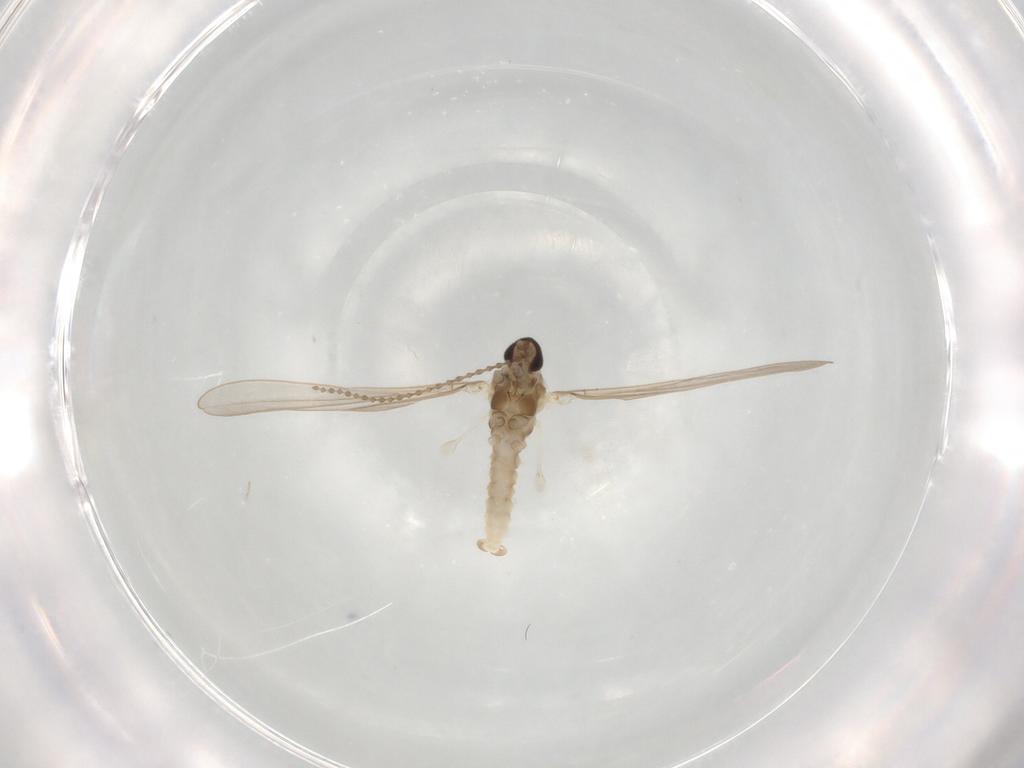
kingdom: Animalia
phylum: Arthropoda
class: Insecta
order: Diptera
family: Cecidomyiidae
